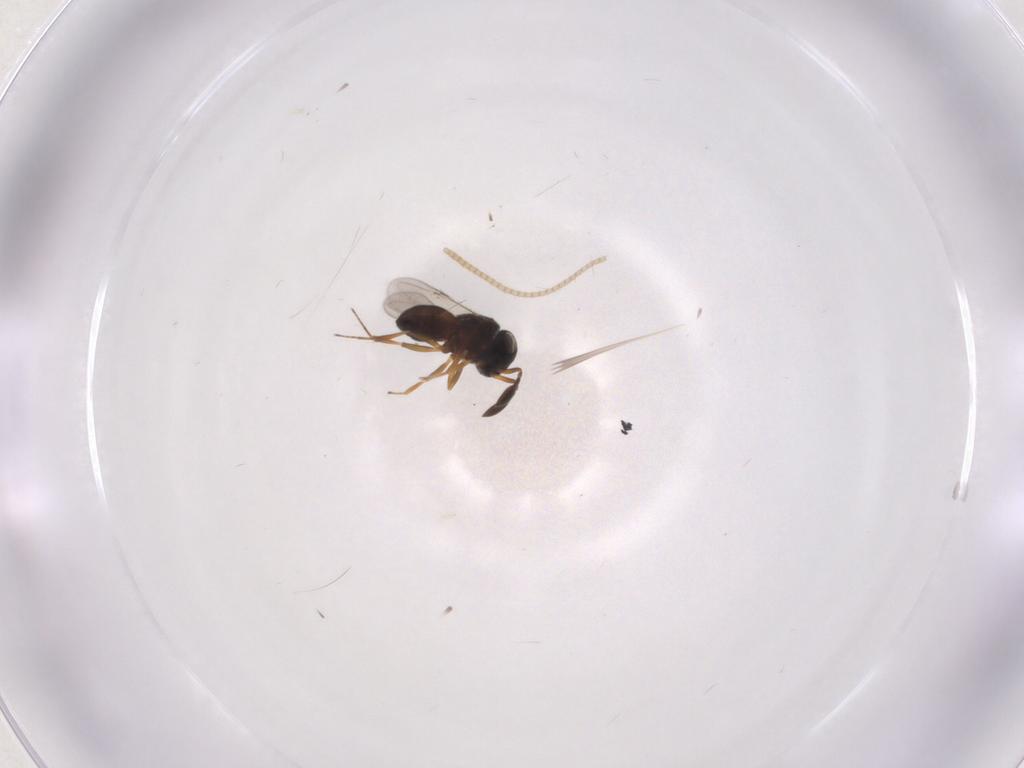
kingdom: Animalia
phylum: Arthropoda
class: Insecta
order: Hymenoptera
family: Scelionidae
